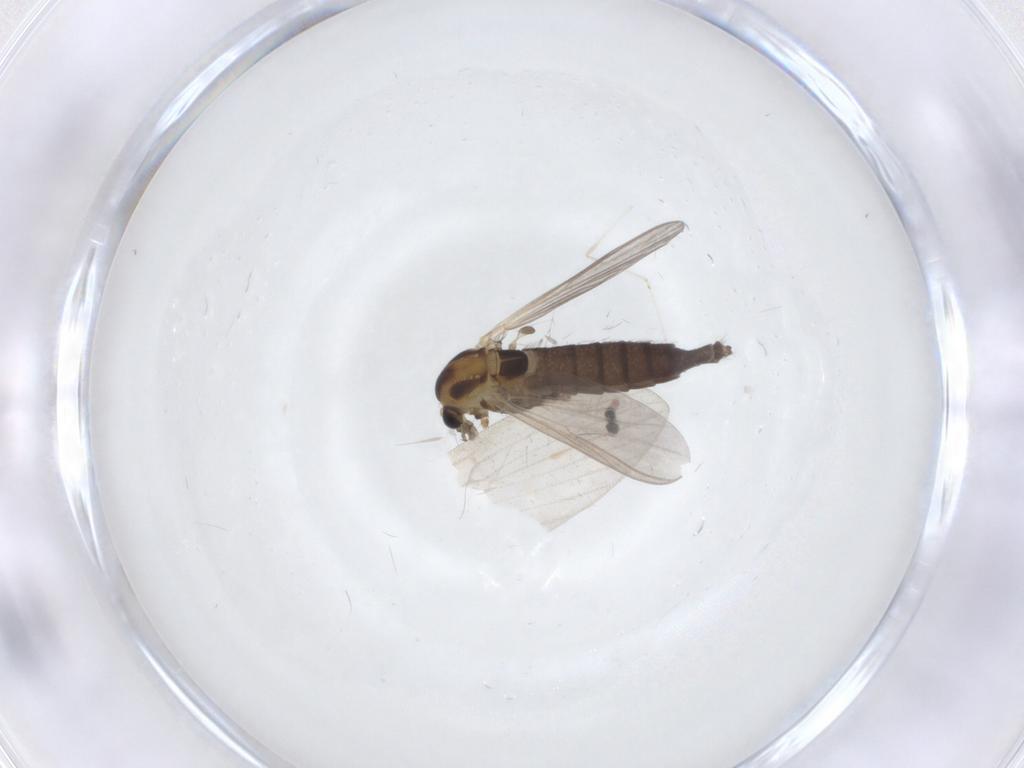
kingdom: Animalia
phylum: Arthropoda
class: Insecta
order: Diptera
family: Chironomidae
